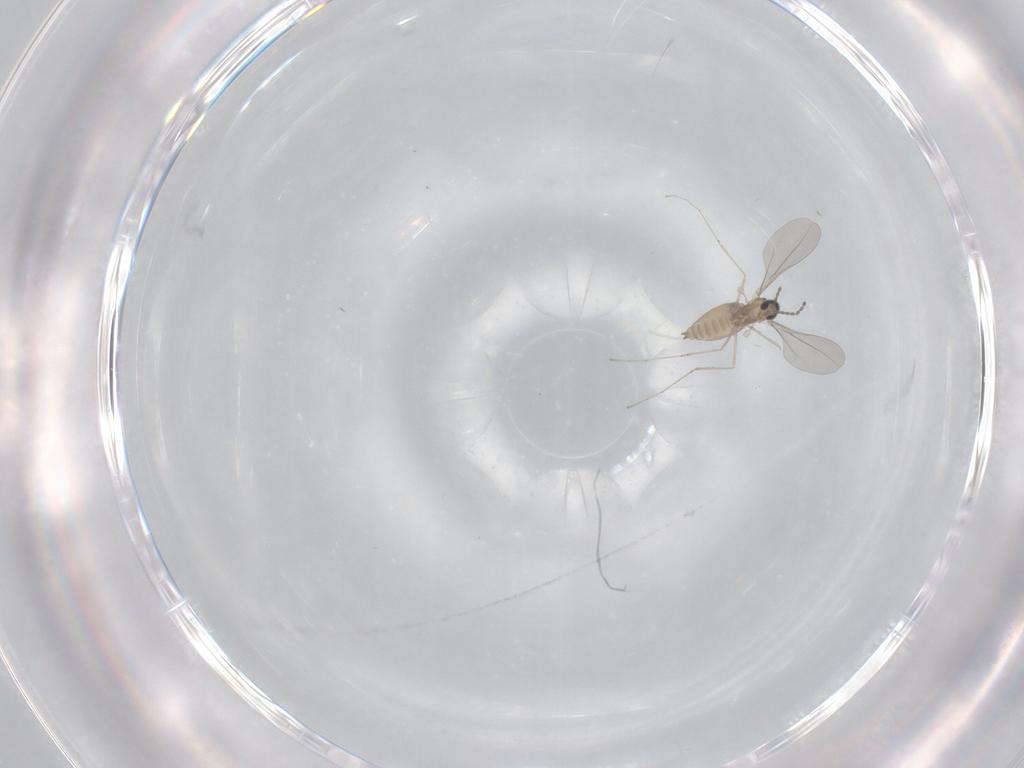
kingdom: Animalia
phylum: Arthropoda
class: Insecta
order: Diptera
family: Cecidomyiidae
